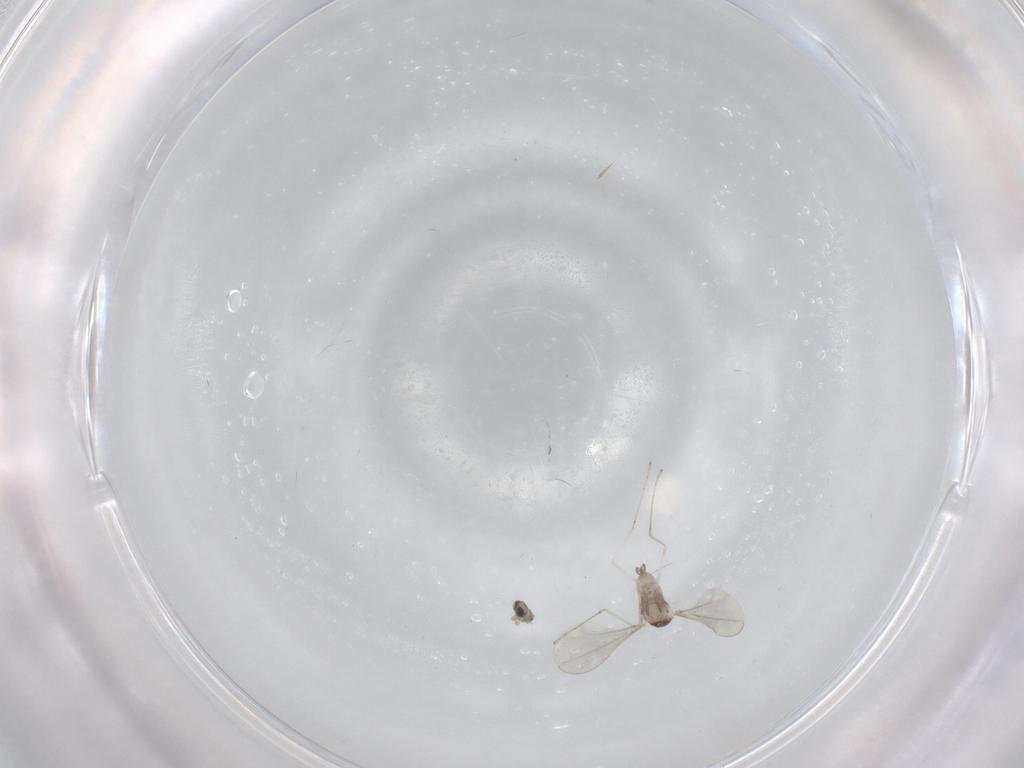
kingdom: Animalia
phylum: Arthropoda
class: Insecta
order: Diptera
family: Cecidomyiidae
